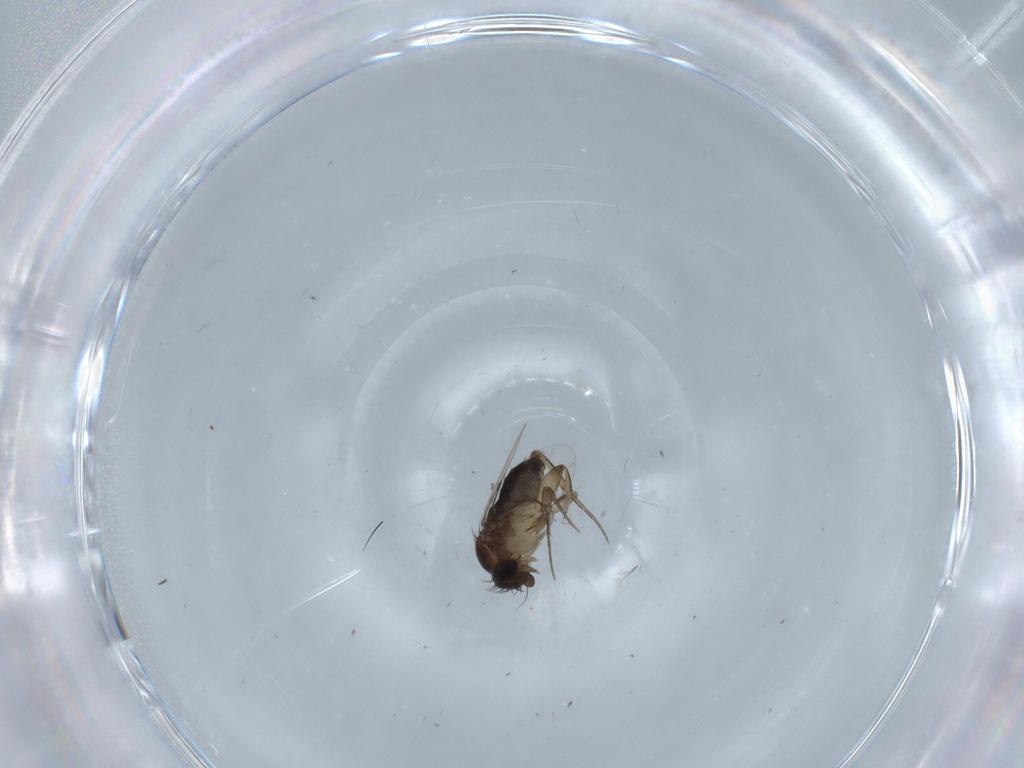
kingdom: Animalia
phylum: Arthropoda
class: Insecta
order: Diptera
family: Phoridae
